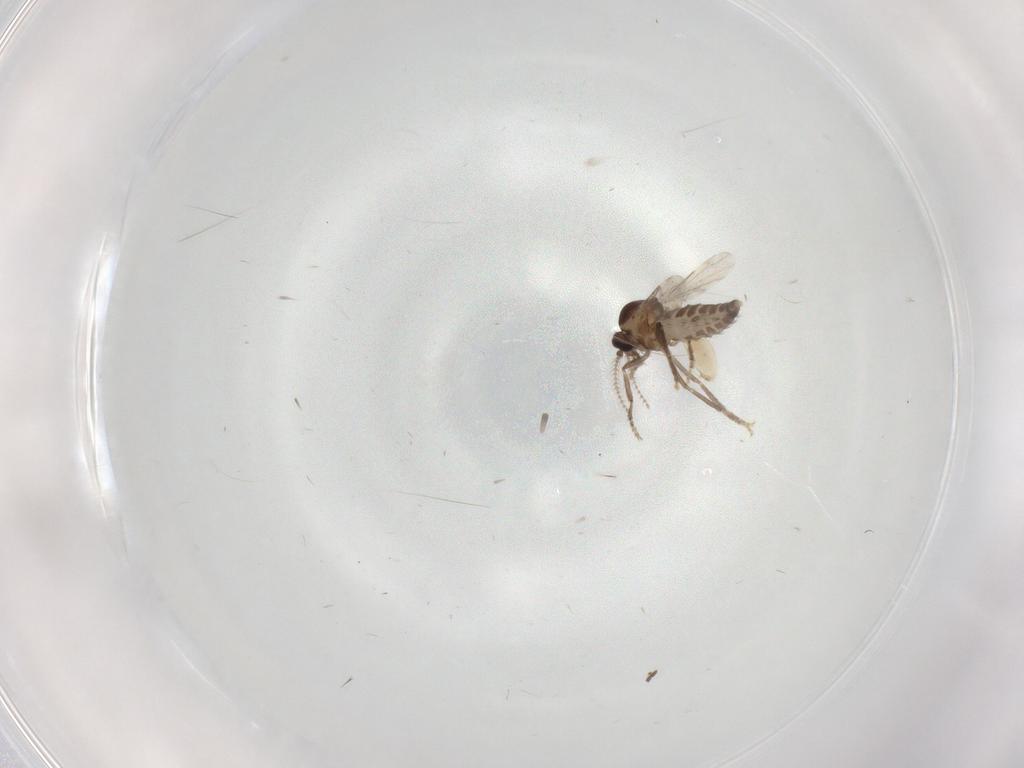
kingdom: Animalia
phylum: Arthropoda
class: Insecta
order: Diptera
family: Ceratopogonidae
